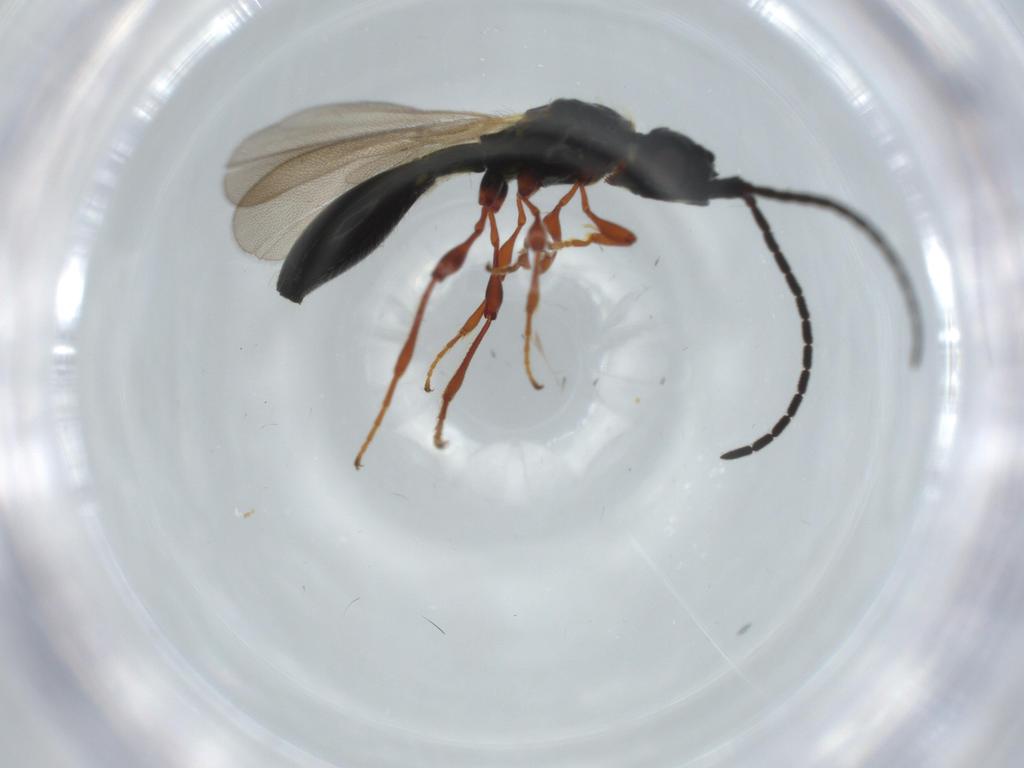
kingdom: Animalia
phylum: Arthropoda
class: Insecta
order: Hymenoptera
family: Diapriidae
